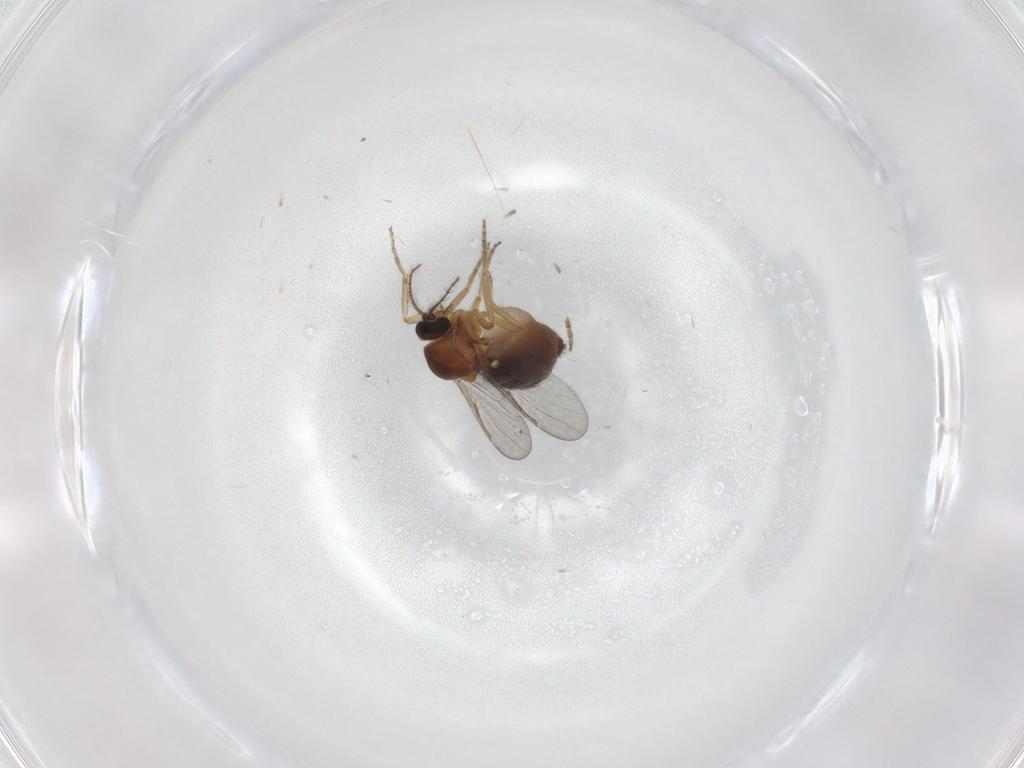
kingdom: Animalia
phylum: Arthropoda
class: Insecta
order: Diptera
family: Ceratopogonidae
